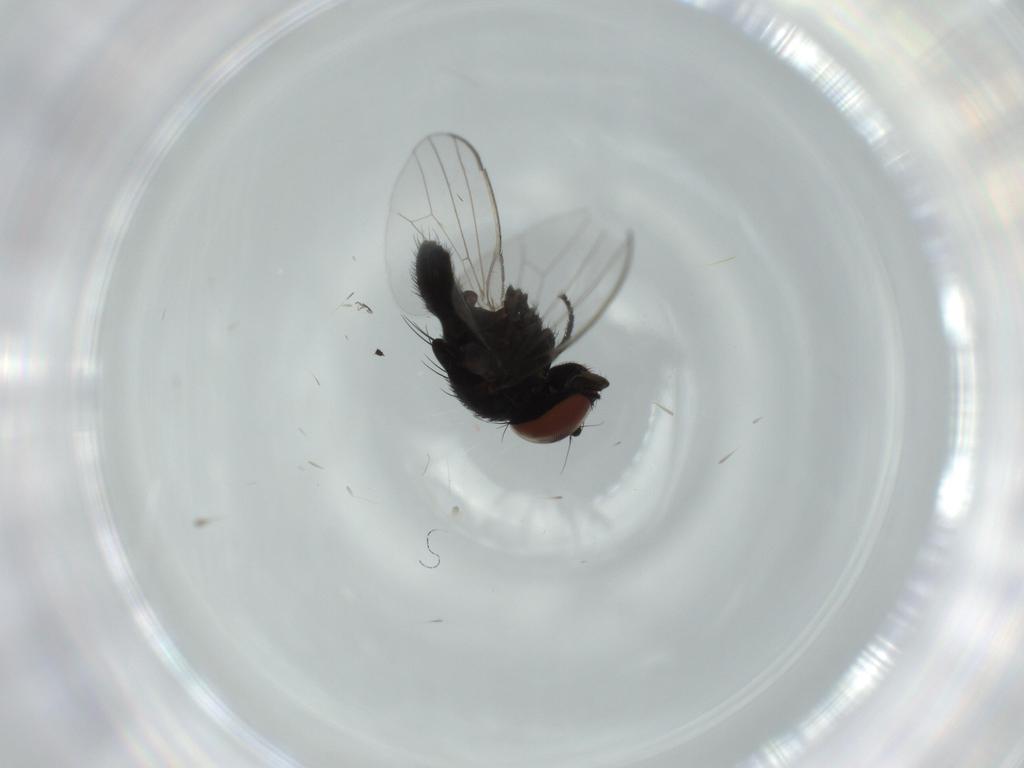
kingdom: Animalia
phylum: Arthropoda
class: Insecta
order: Diptera
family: Milichiidae
